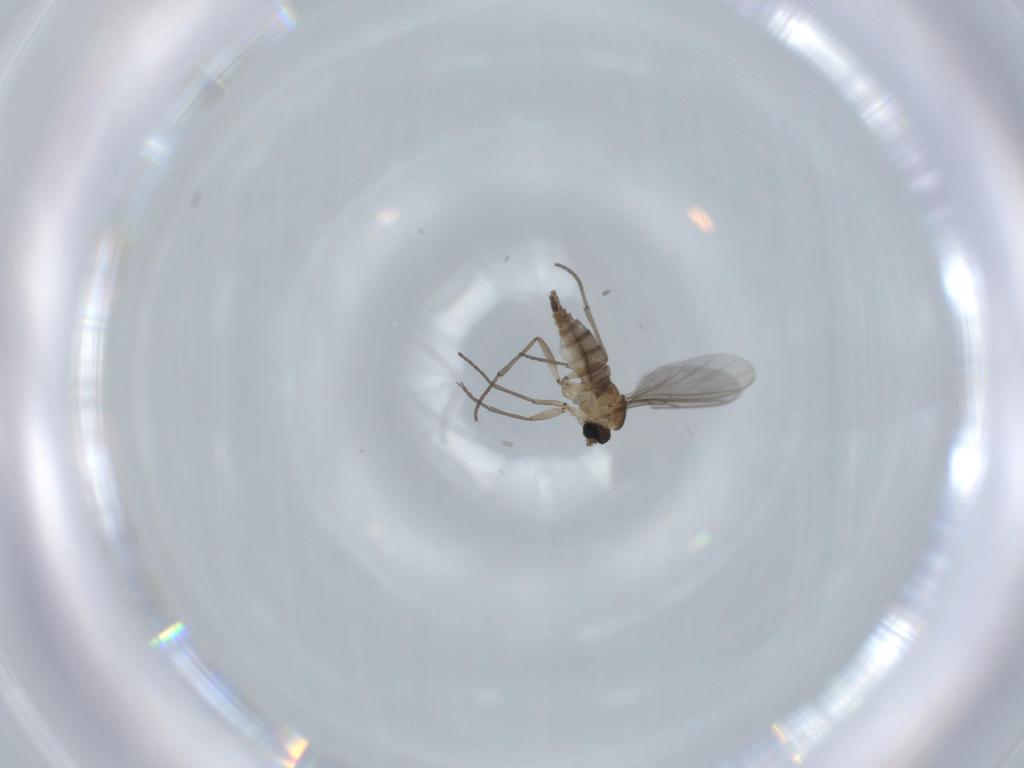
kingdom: Animalia
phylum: Arthropoda
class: Insecta
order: Diptera
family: Sciaridae
